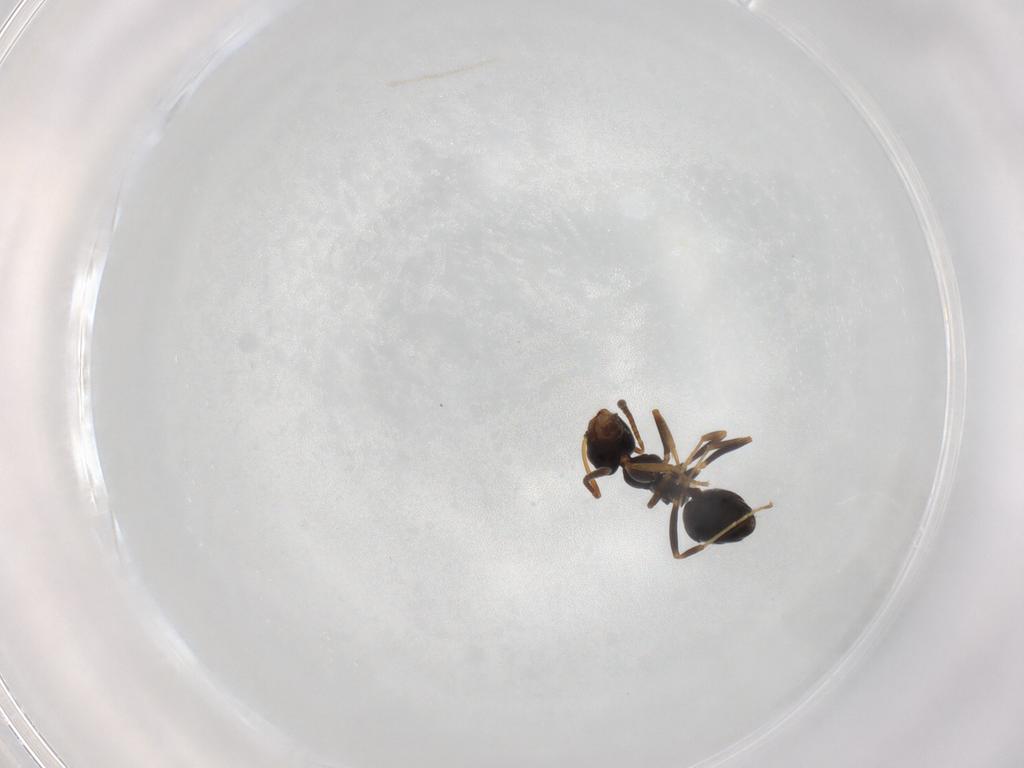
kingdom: Animalia
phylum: Arthropoda
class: Insecta
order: Hymenoptera
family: Formicidae
